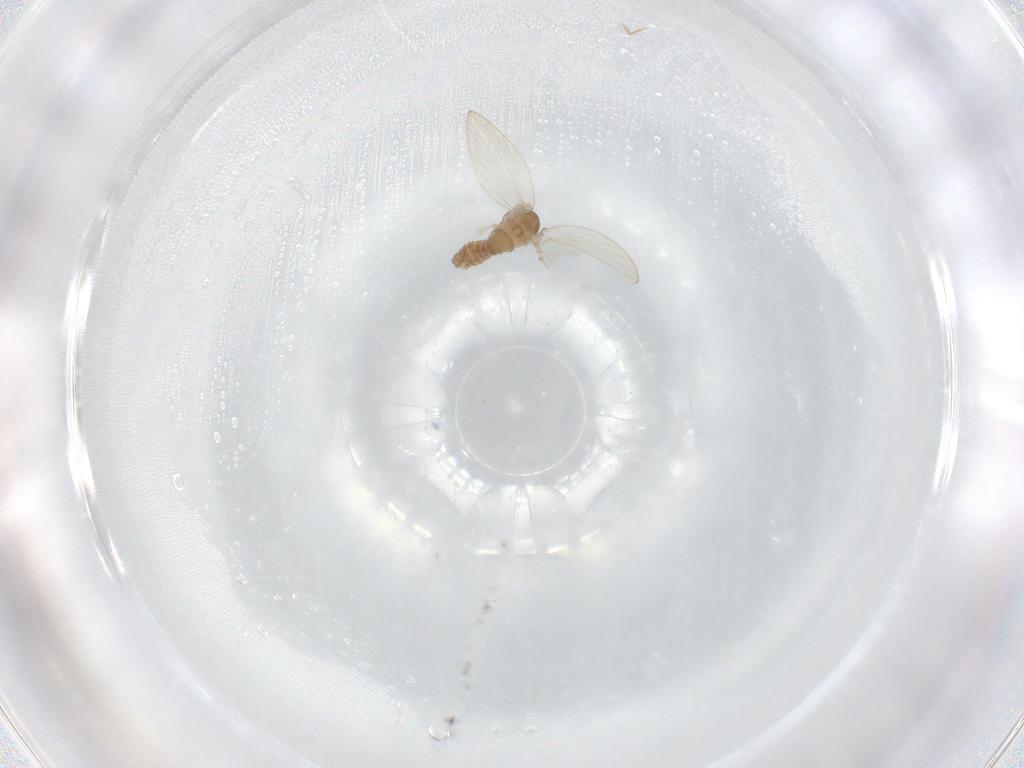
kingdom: Animalia
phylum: Arthropoda
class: Insecta
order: Diptera
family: Psychodidae
